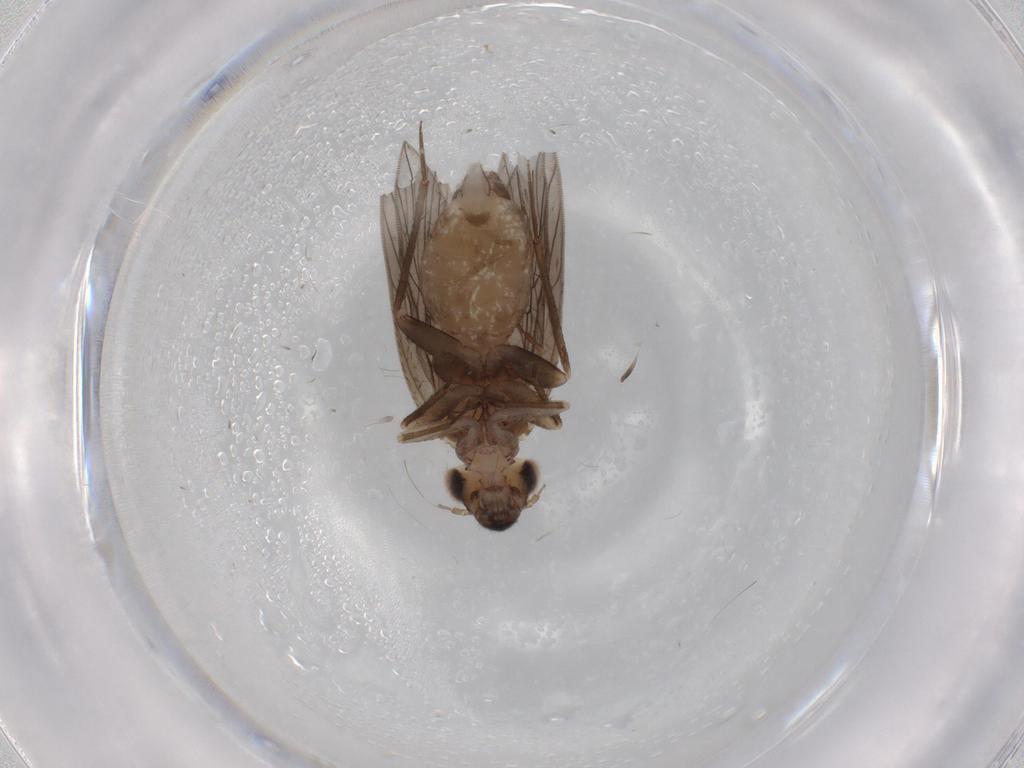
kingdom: Animalia
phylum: Arthropoda
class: Insecta
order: Psocodea
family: Lepidopsocidae
